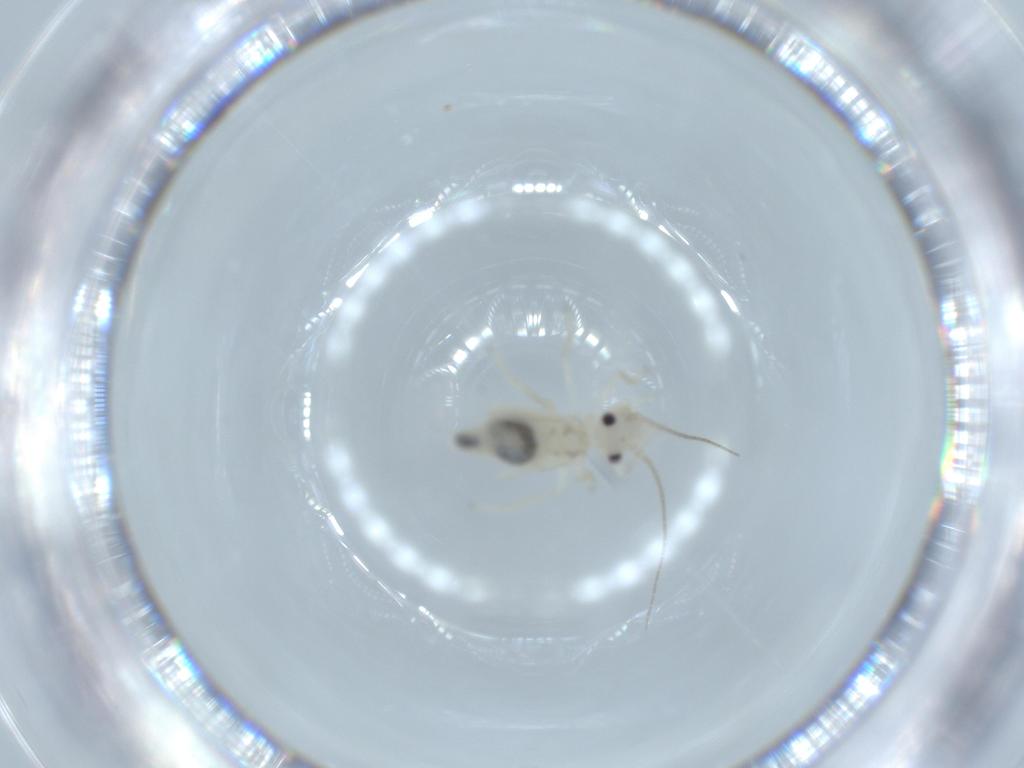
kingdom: Animalia
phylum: Arthropoda
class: Insecta
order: Psocodea
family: Caeciliusidae
